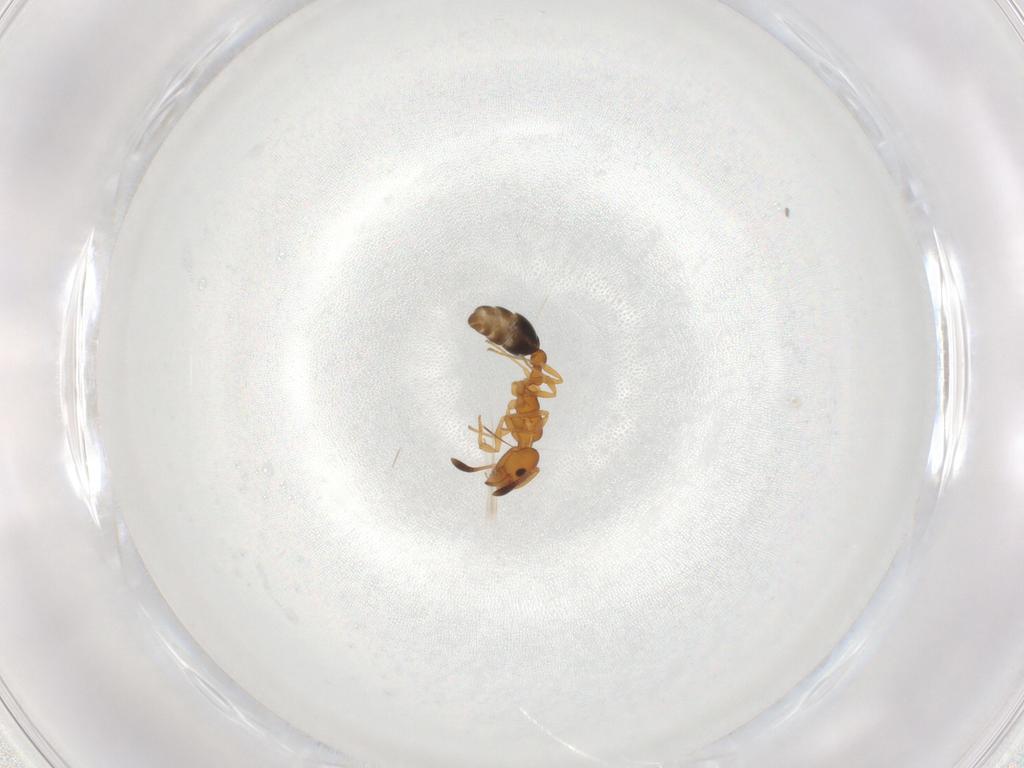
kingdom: Animalia
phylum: Arthropoda
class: Insecta
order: Hymenoptera
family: Formicidae
